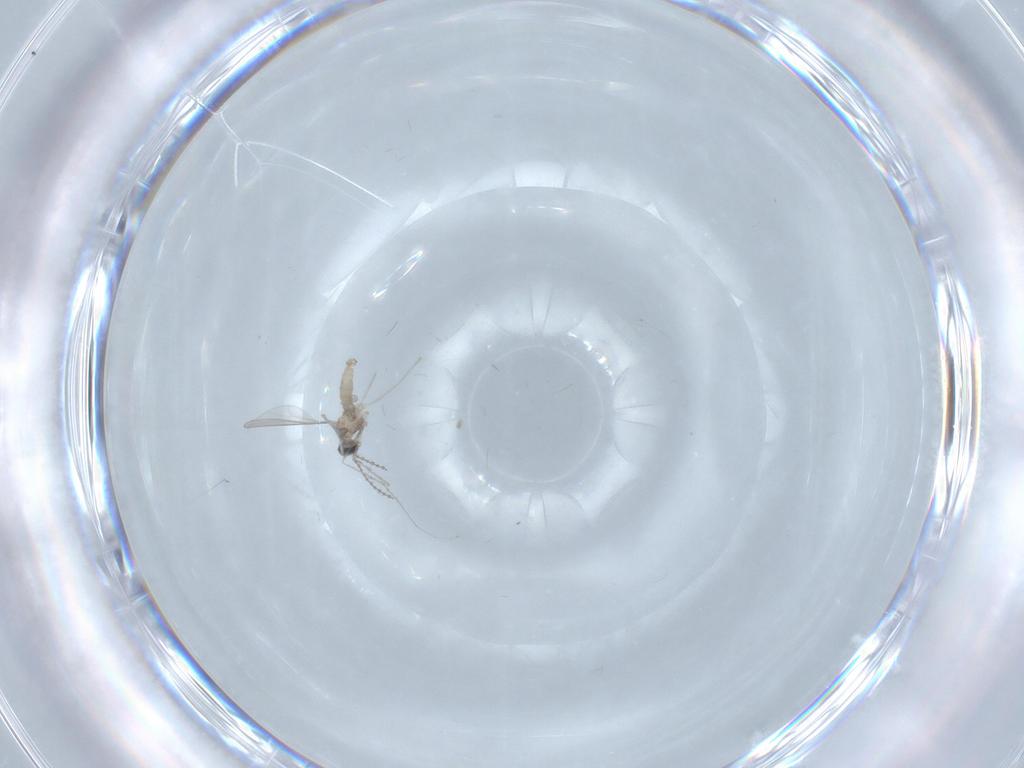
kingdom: Animalia
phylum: Arthropoda
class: Insecta
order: Diptera
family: Cecidomyiidae
